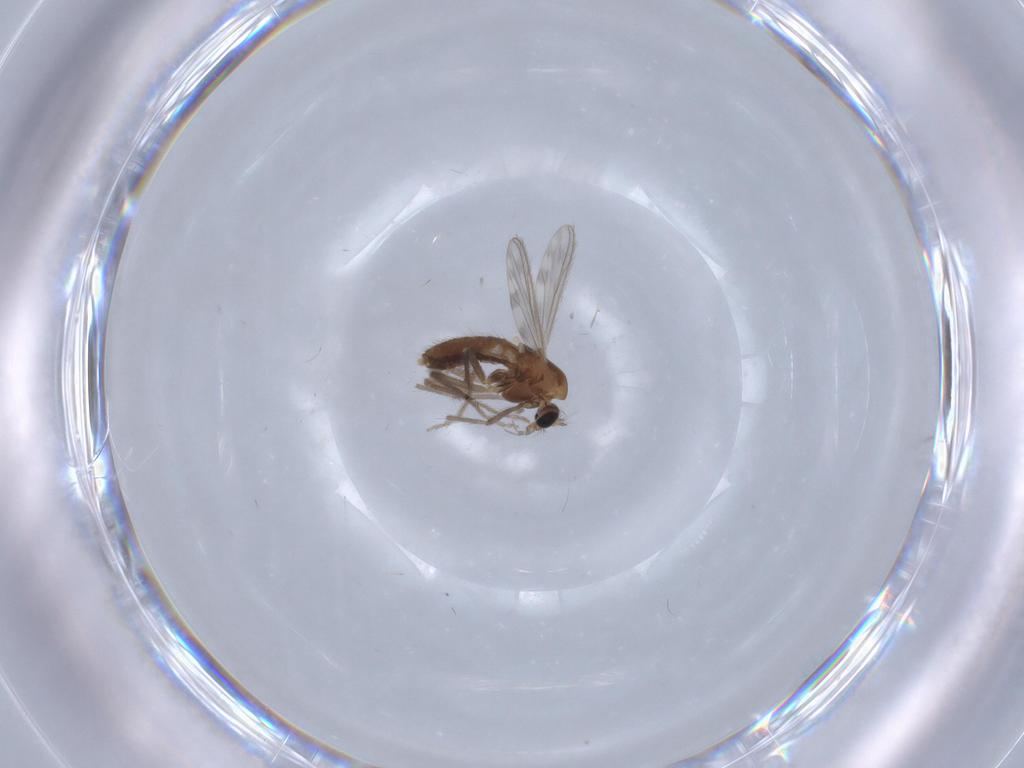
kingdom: Animalia
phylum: Arthropoda
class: Insecta
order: Diptera
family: Chironomidae
